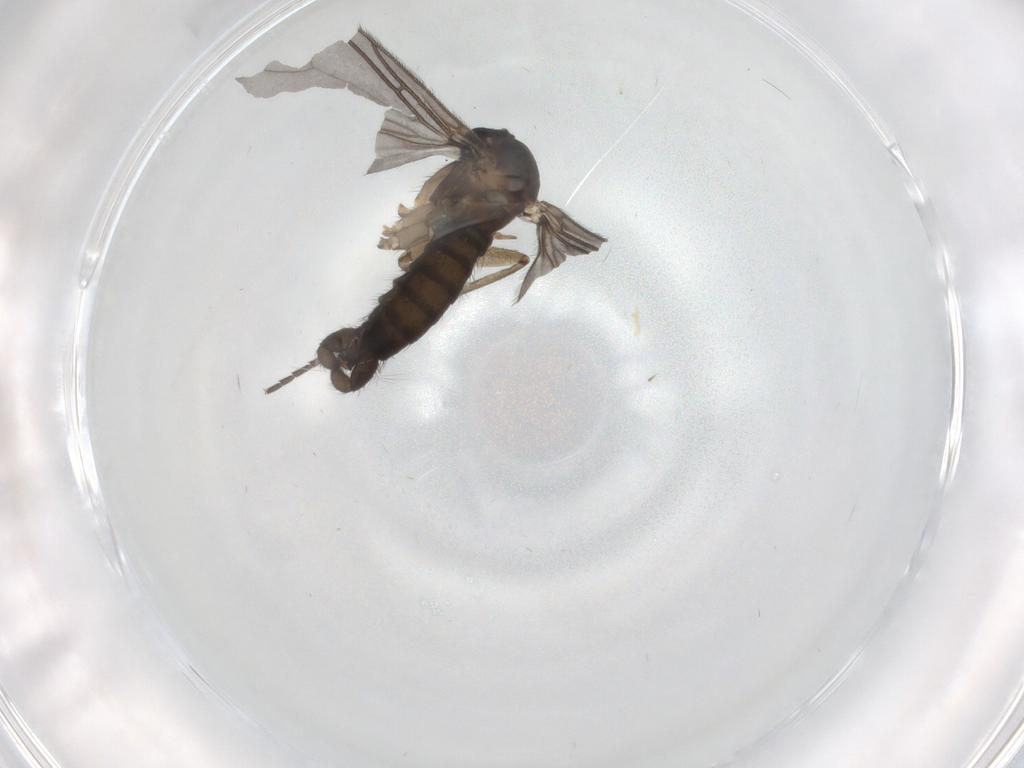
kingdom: Animalia
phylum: Arthropoda
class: Insecta
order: Diptera
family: Sciaridae
